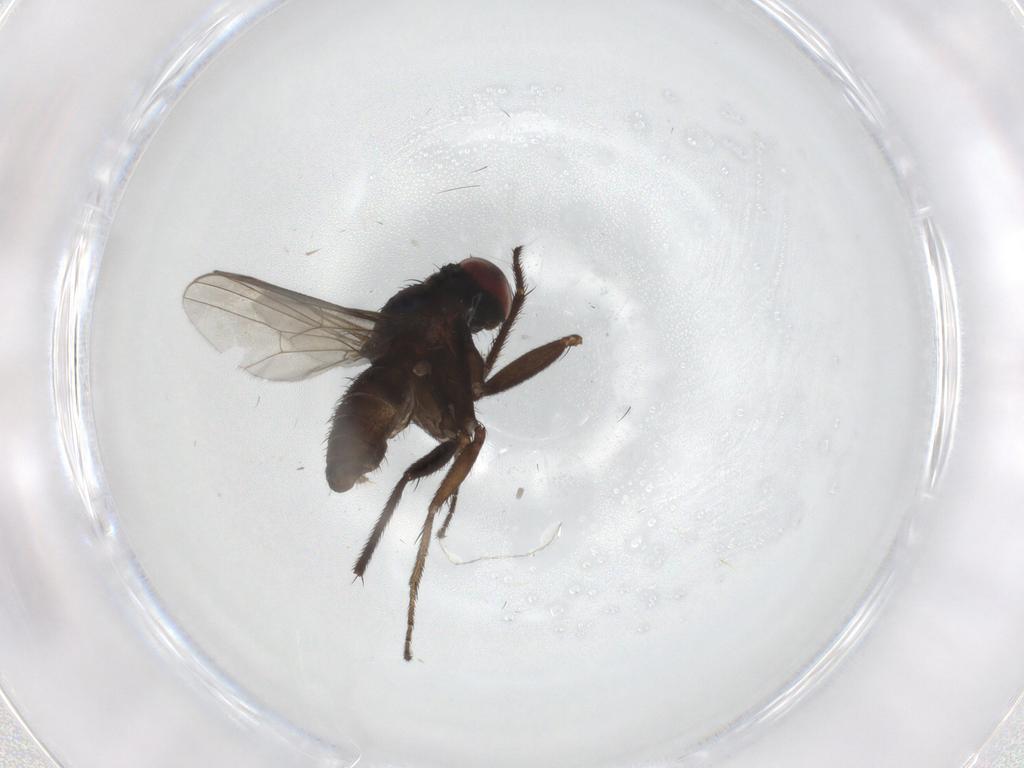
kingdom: Animalia
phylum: Arthropoda
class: Insecta
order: Diptera
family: Dolichopodidae
